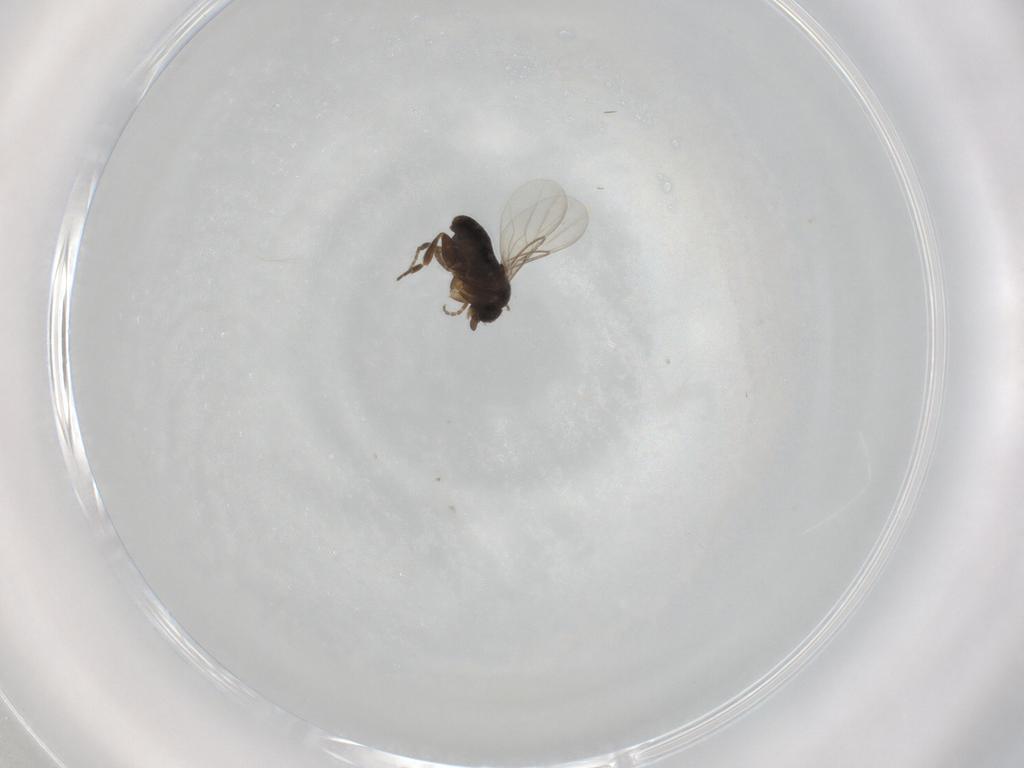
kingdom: Animalia
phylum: Arthropoda
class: Insecta
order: Diptera
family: Phoridae
